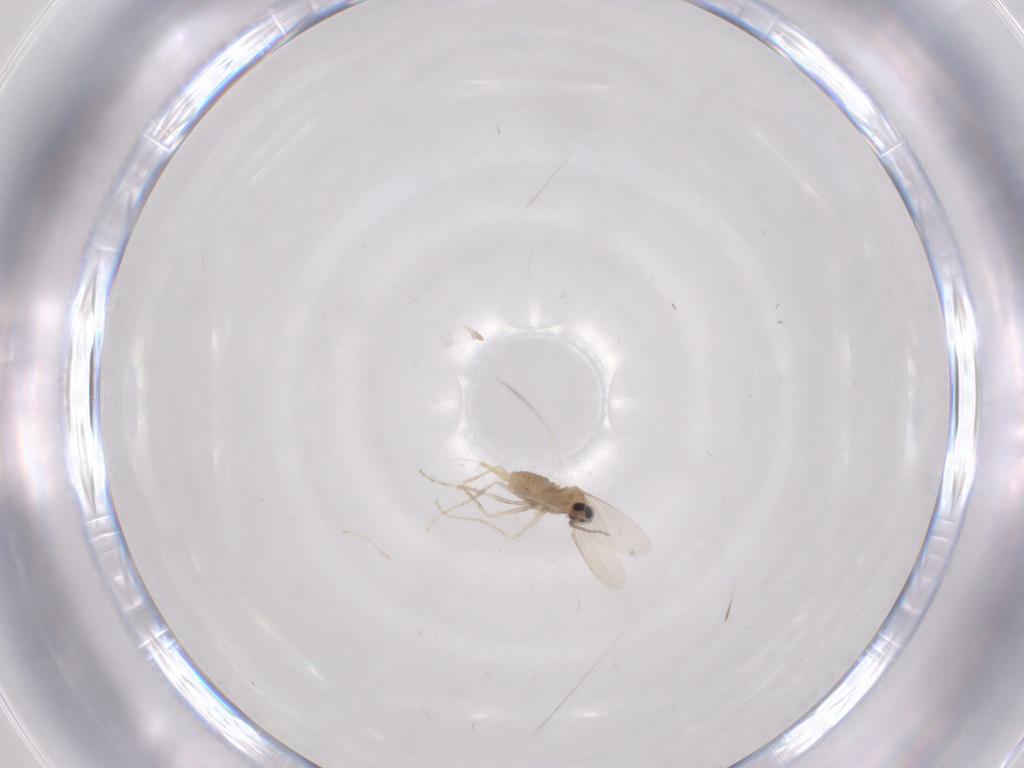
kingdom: Animalia
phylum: Arthropoda
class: Insecta
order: Diptera
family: Cecidomyiidae
